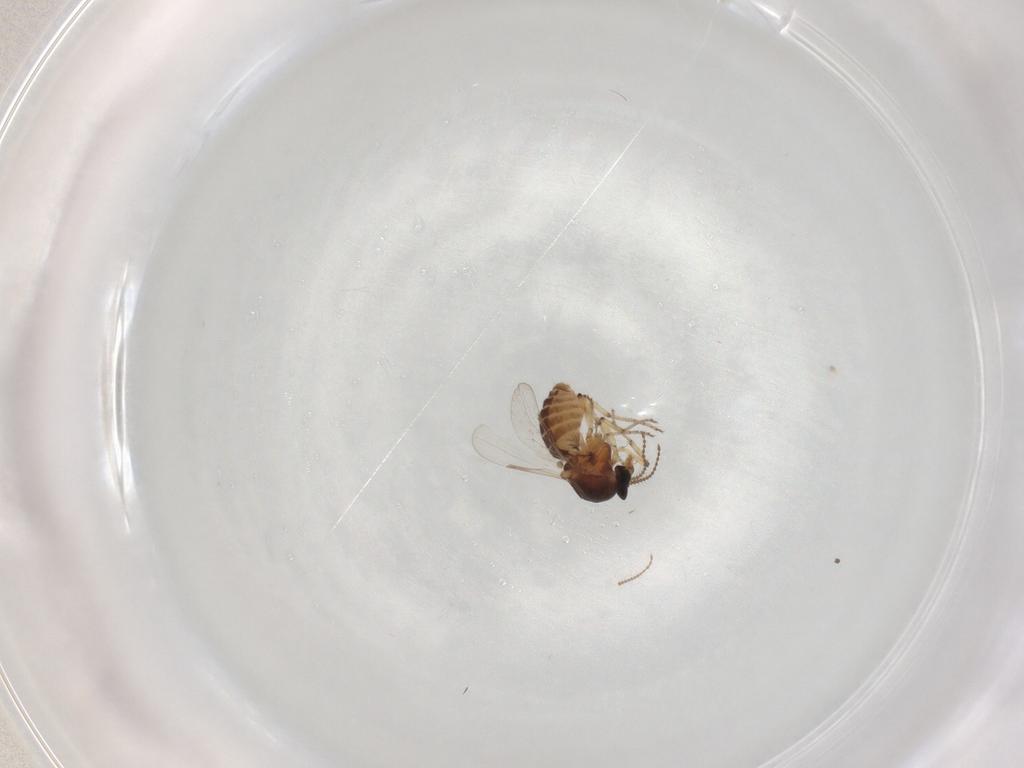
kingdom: Animalia
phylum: Arthropoda
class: Insecta
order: Diptera
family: Ceratopogonidae
